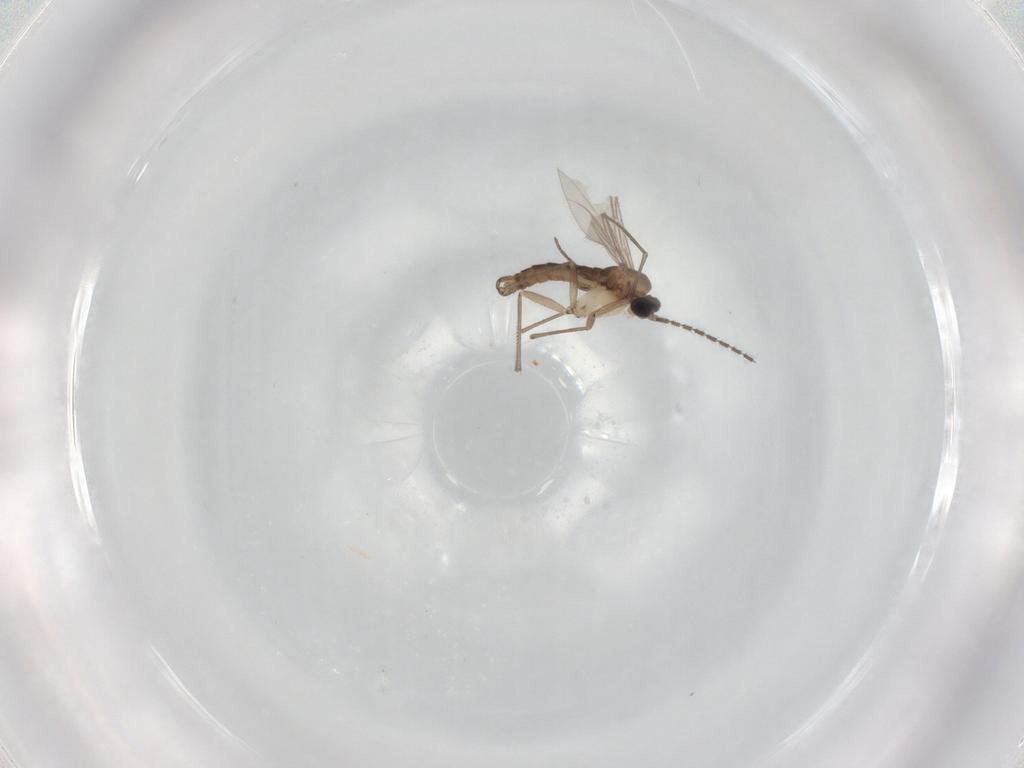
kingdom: Animalia
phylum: Arthropoda
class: Insecta
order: Diptera
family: Sciaridae
